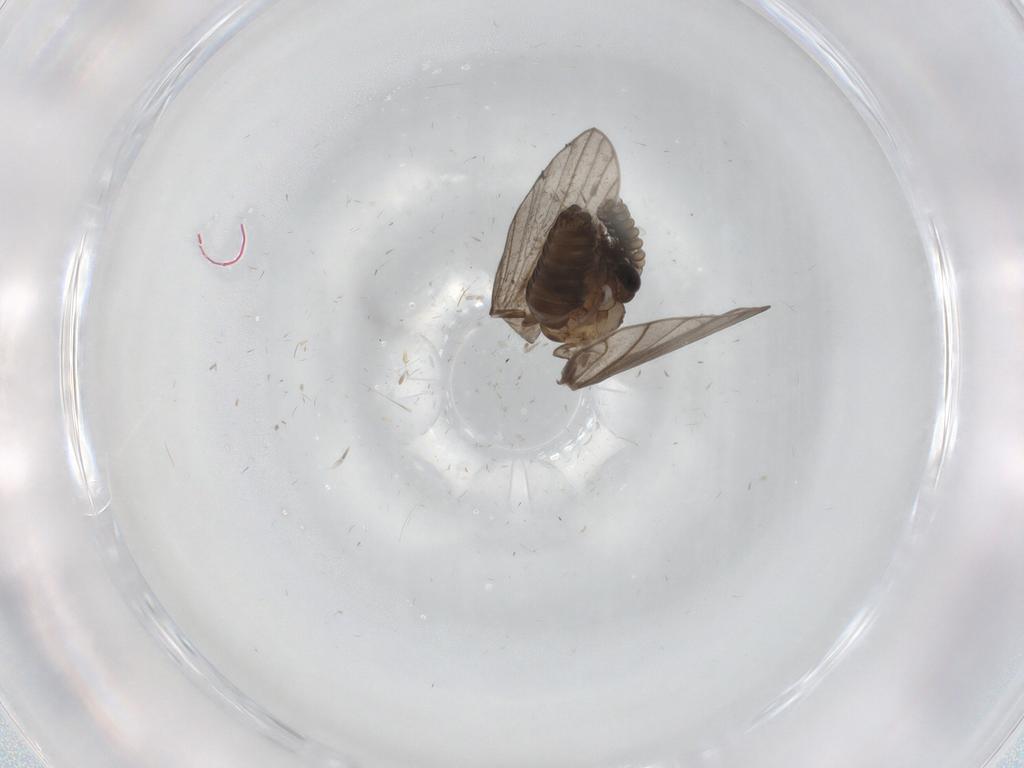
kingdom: Animalia
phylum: Arthropoda
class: Insecta
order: Diptera
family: Psychodidae
